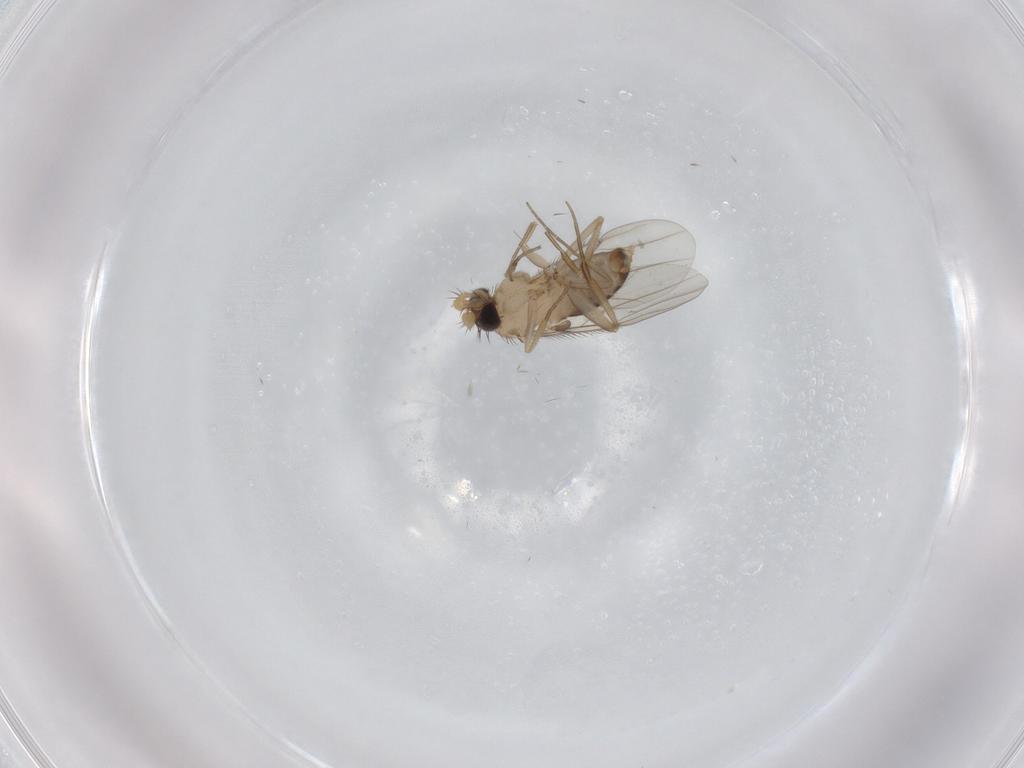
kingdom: Animalia
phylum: Arthropoda
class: Insecta
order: Diptera
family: Phoridae
